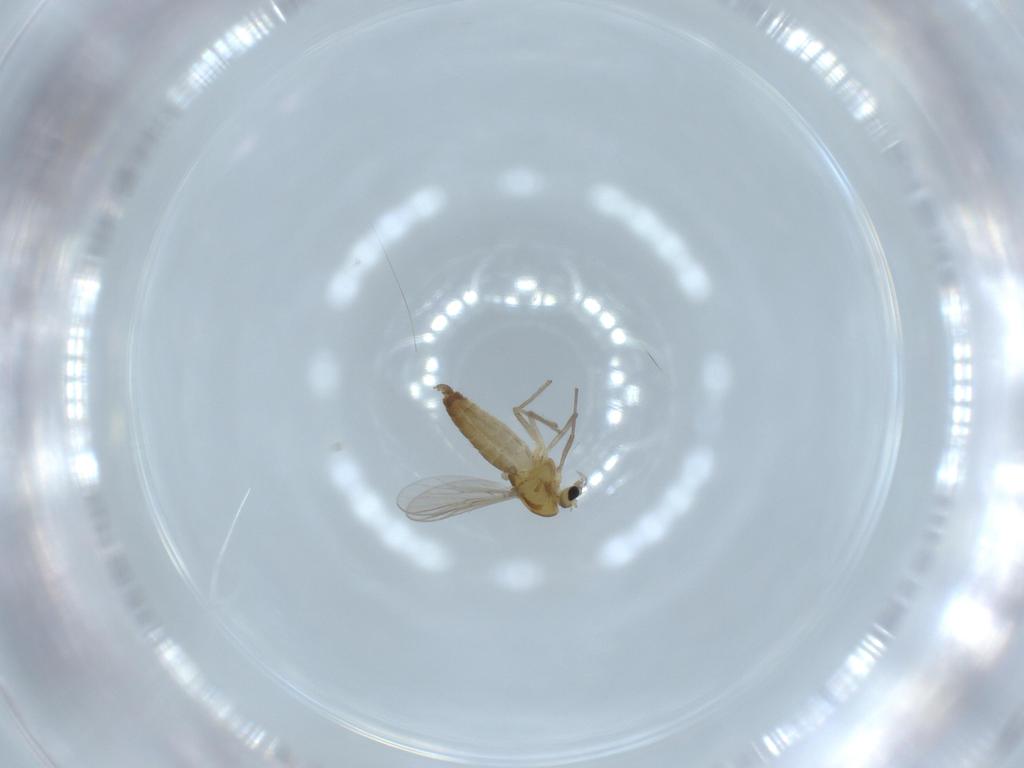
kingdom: Animalia
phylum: Arthropoda
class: Insecta
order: Diptera
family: Chironomidae
